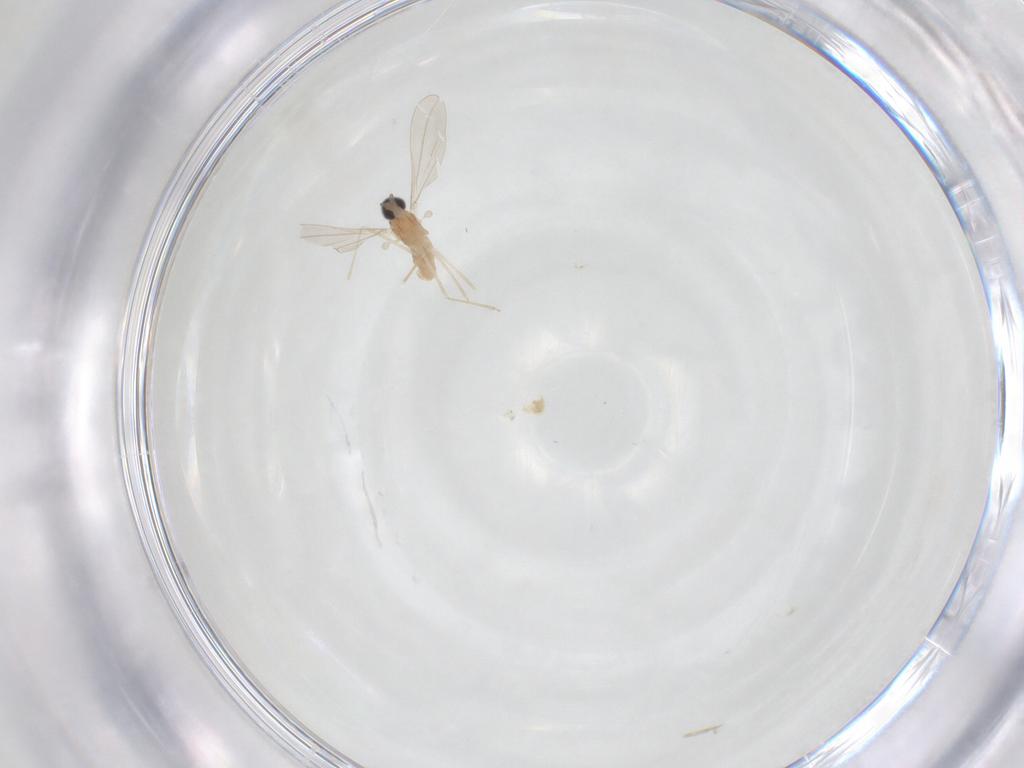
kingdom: Animalia
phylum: Arthropoda
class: Insecta
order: Diptera
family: Cecidomyiidae
